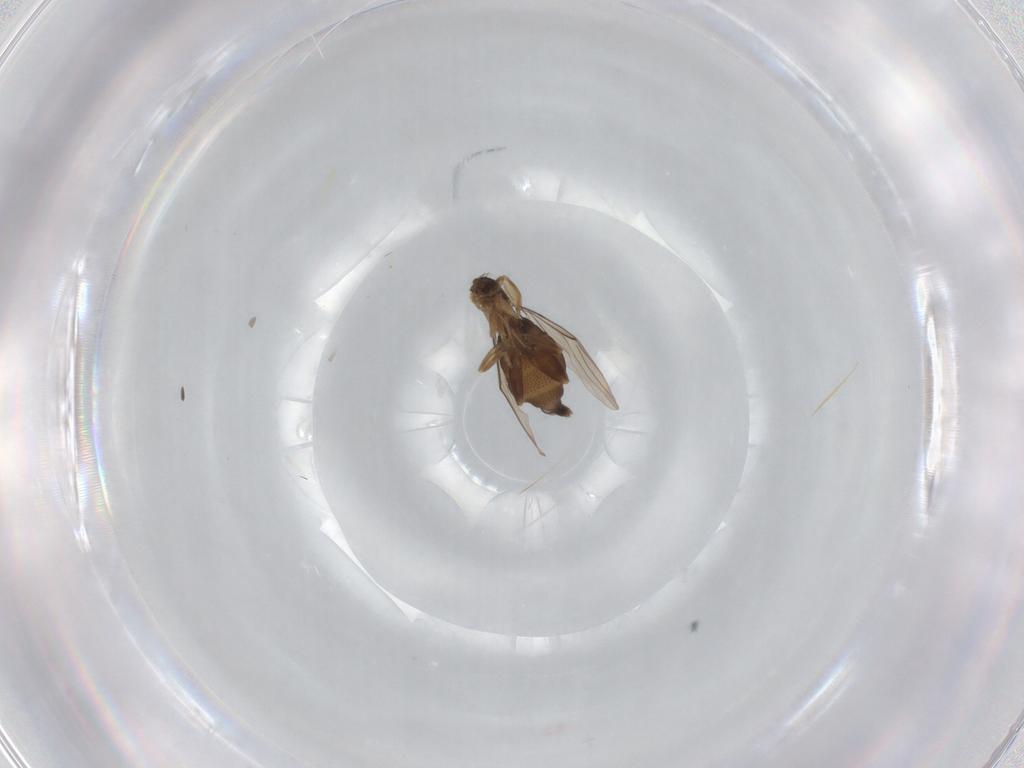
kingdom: Animalia
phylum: Arthropoda
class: Insecta
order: Diptera
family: Phoridae
